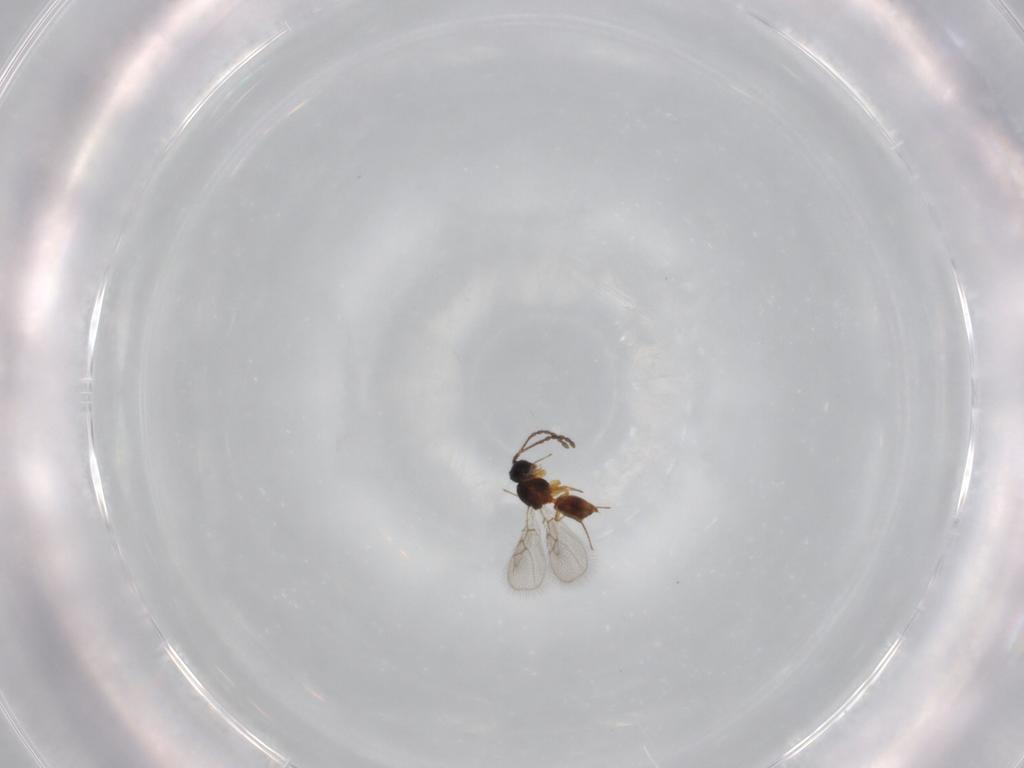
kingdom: Animalia
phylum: Arthropoda
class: Insecta
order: Hymenoptera
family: Figitidae
